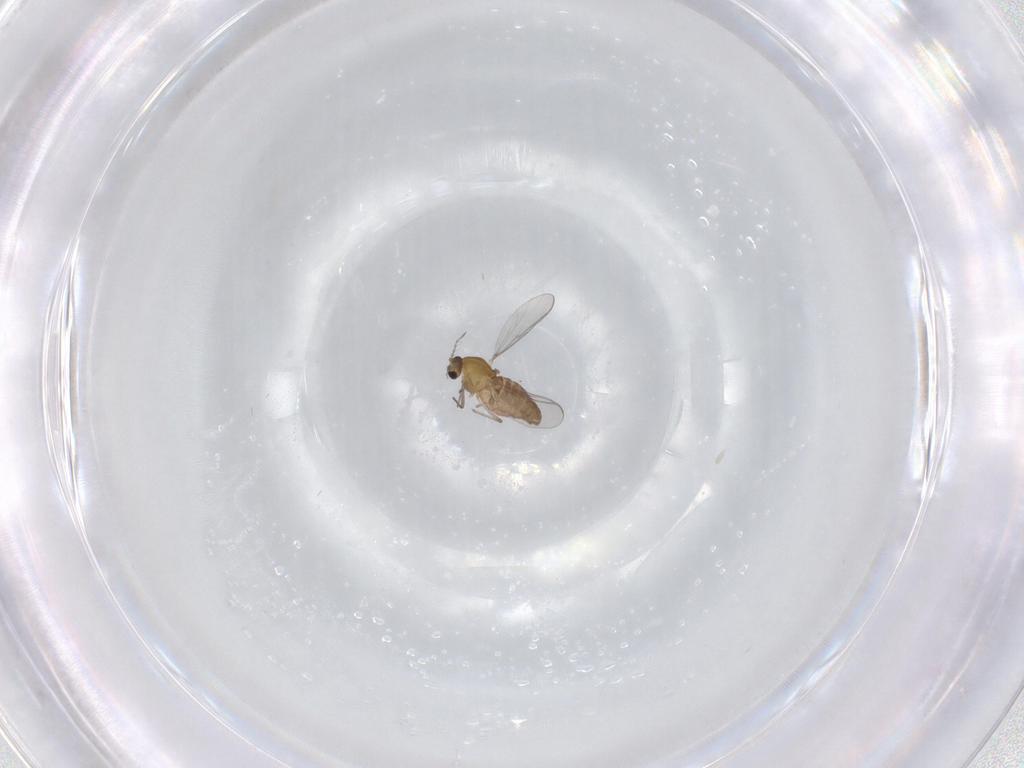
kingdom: Animalia
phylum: Arthropoda
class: Insecta
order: Diptera
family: Chironomidae
